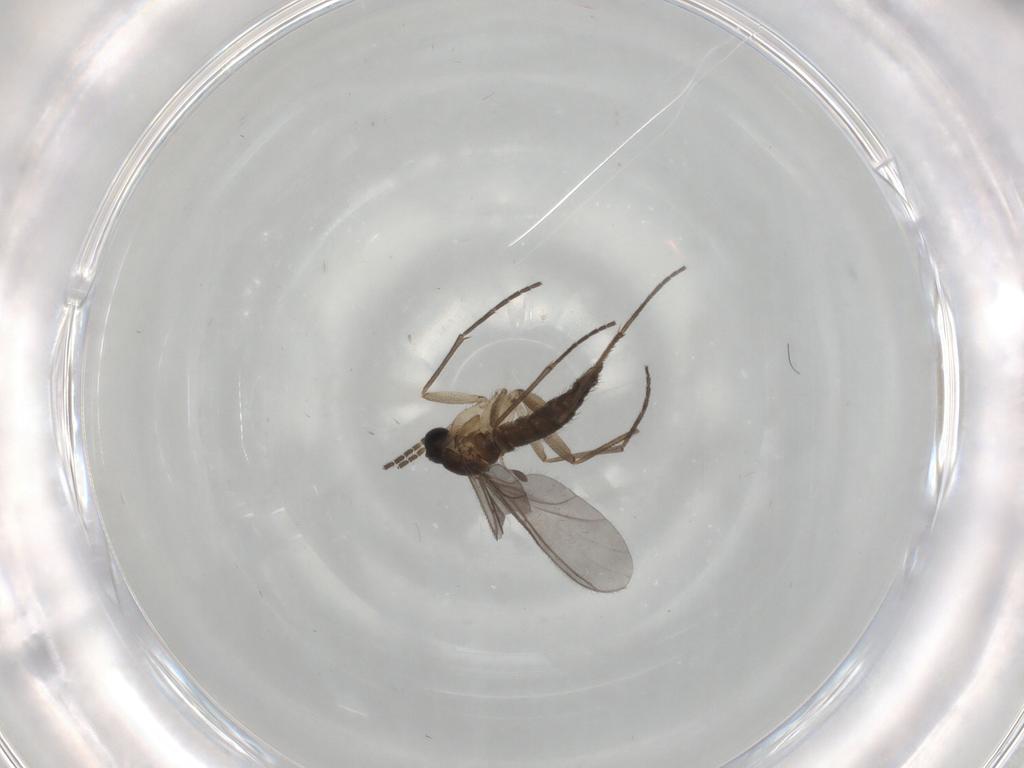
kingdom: Animalia
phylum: Arthropoda
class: Insecta
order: Diptera
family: Sciaridae
